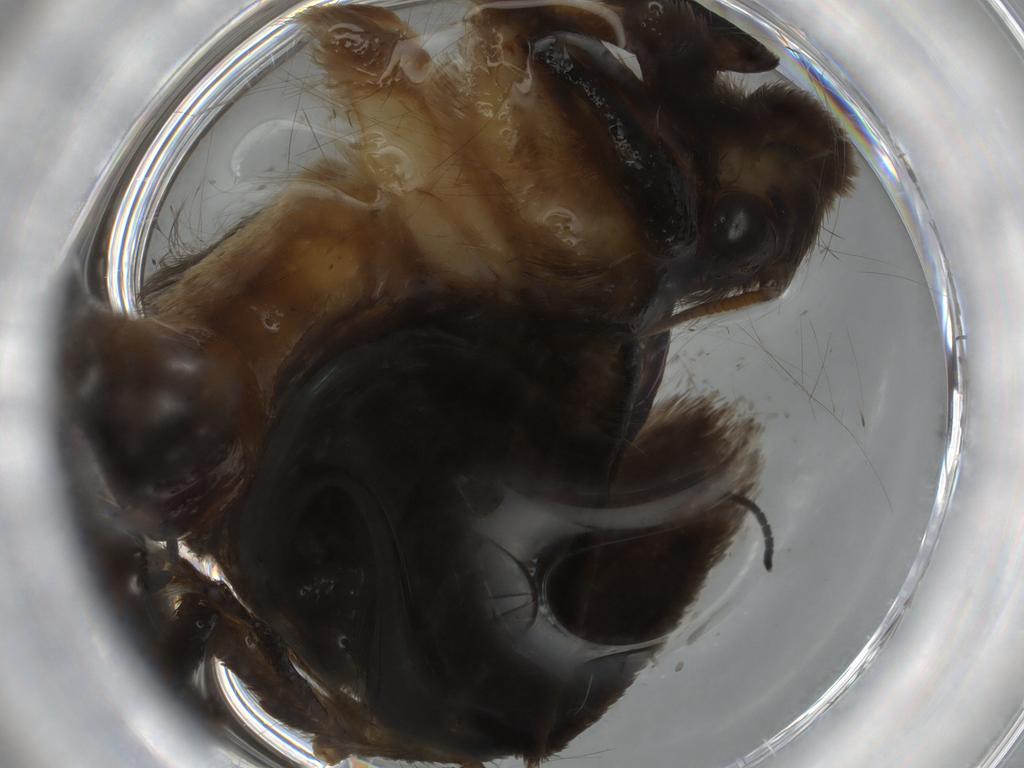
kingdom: Animalia
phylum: Arthropoda
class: Insecta
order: Lepidoptera
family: Tineidae
